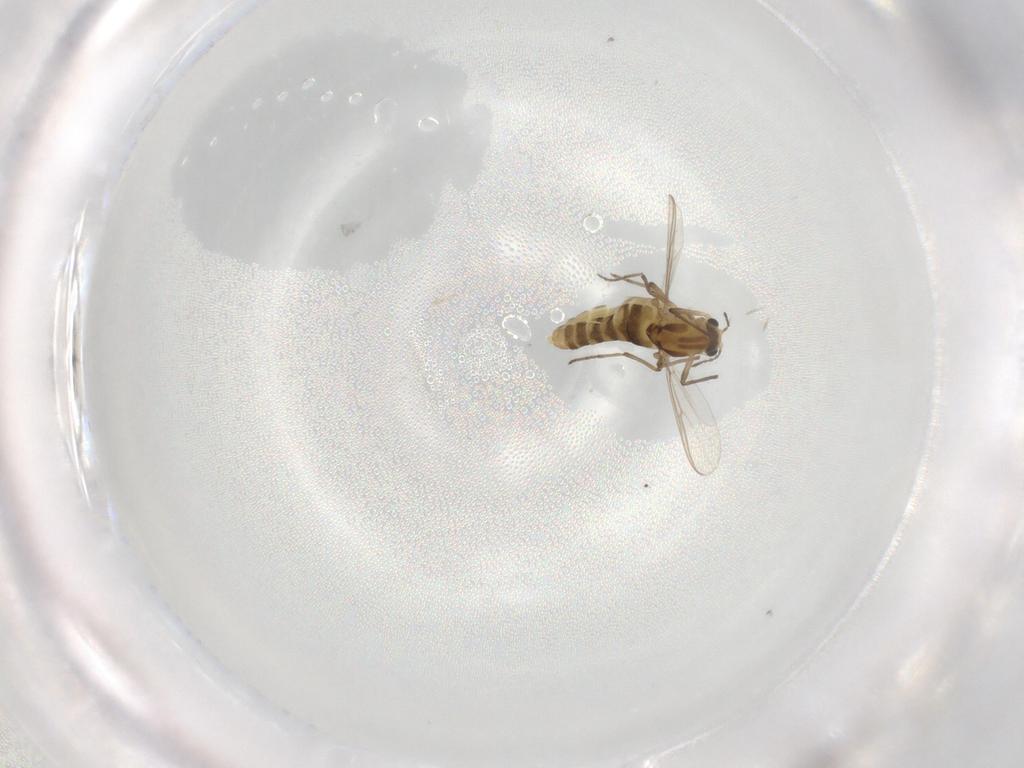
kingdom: Animalia
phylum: Arthropoda
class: Insecta
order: Diptera
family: Chironomidae
